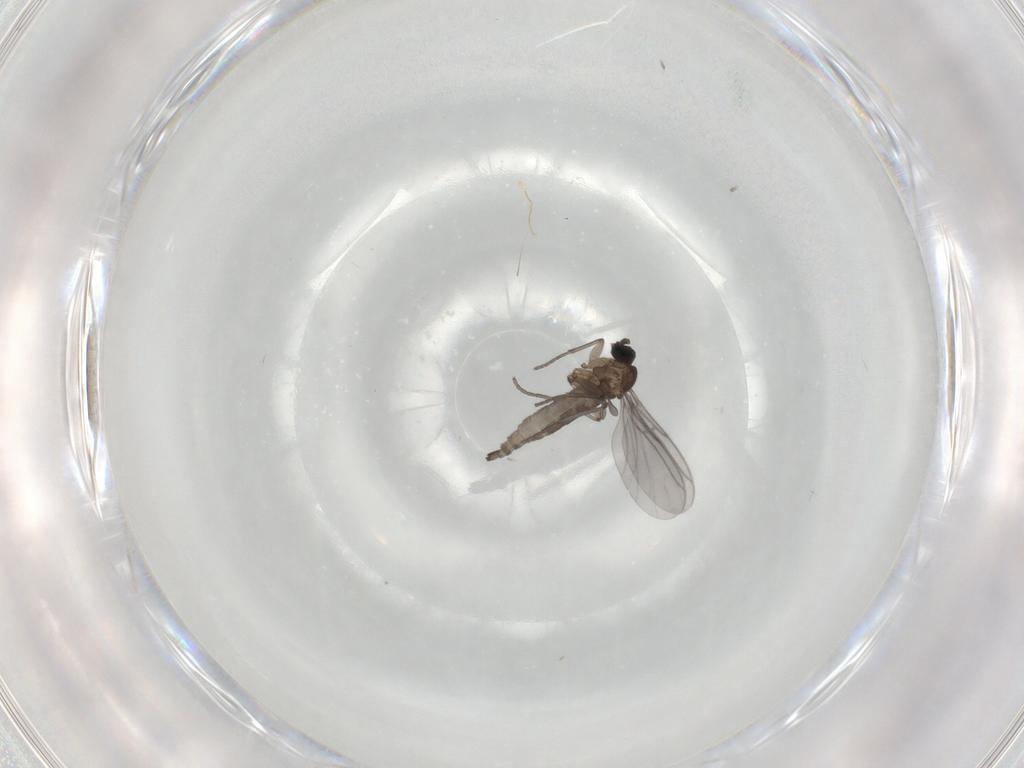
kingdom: Animalia
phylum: Arthropoda
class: Insecta
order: Diptera
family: Sciaridae
